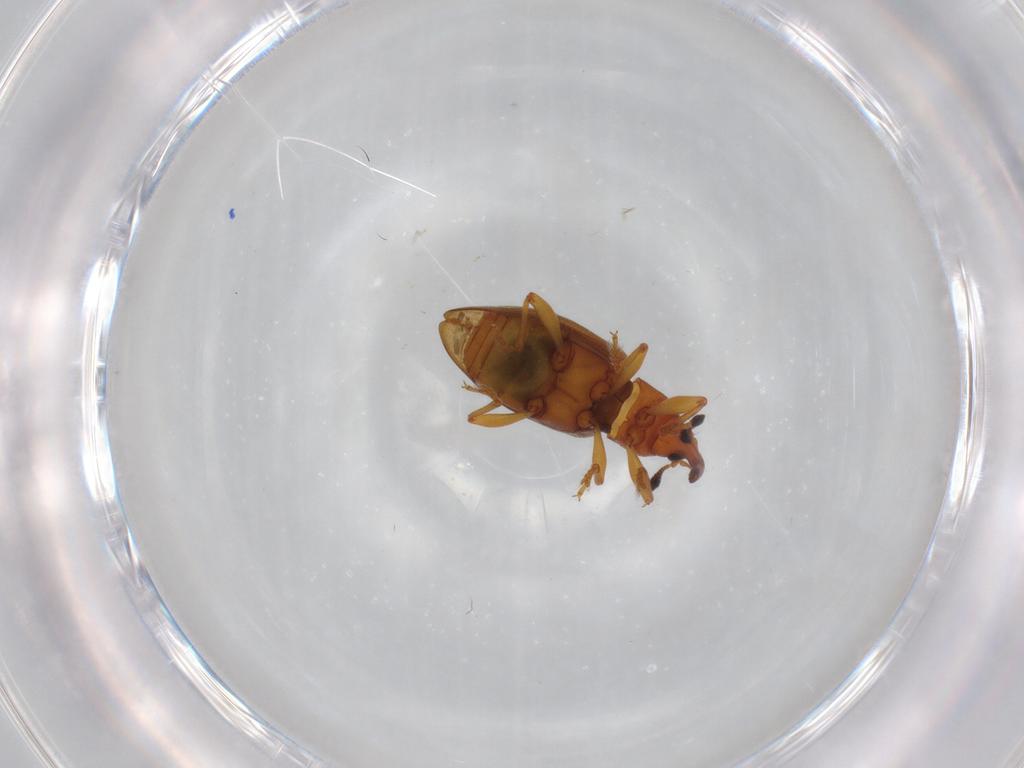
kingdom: Animalia
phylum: Arthropoda
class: Insecta
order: Coleoptera
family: Curculionidae
